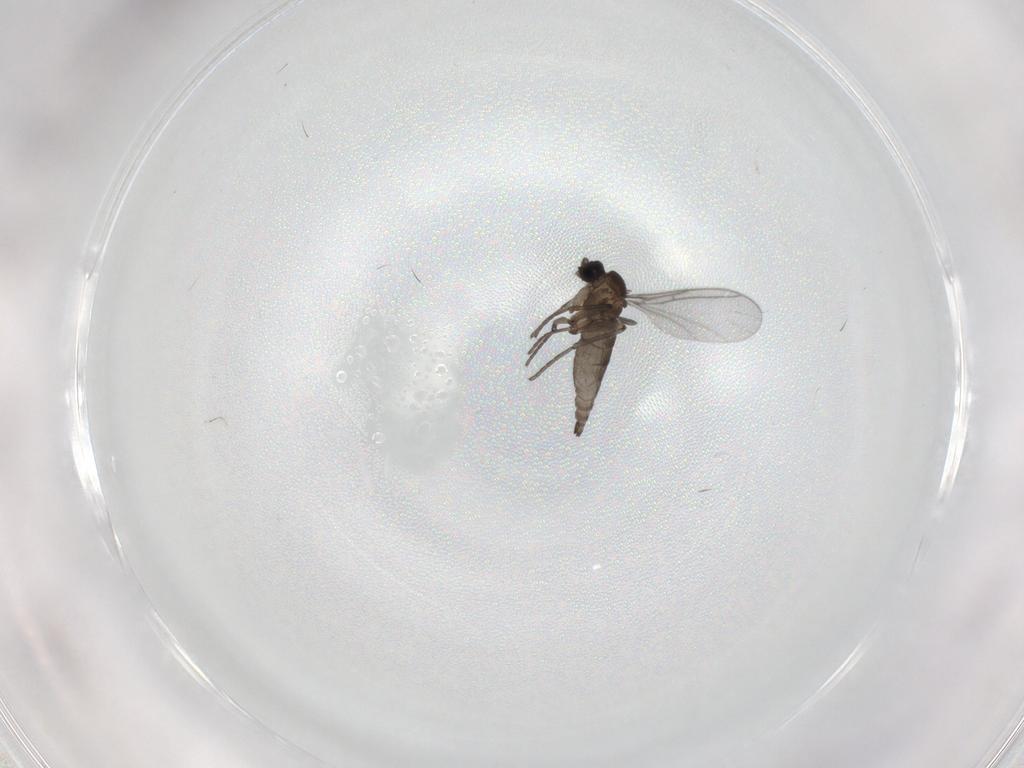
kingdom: Animalia
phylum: Arthropoda
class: Insecta
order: Diptera
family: Sciaridae
